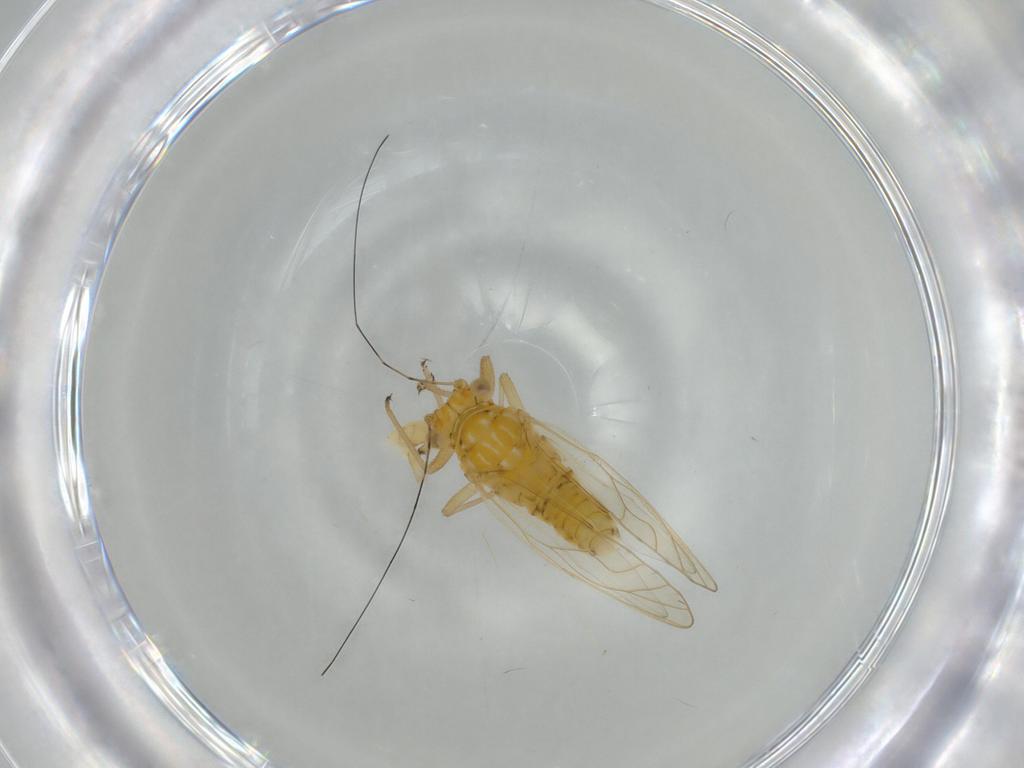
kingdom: Animalia
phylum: Arthropoda
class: Insecta
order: Hemiptera
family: Psyllidae
